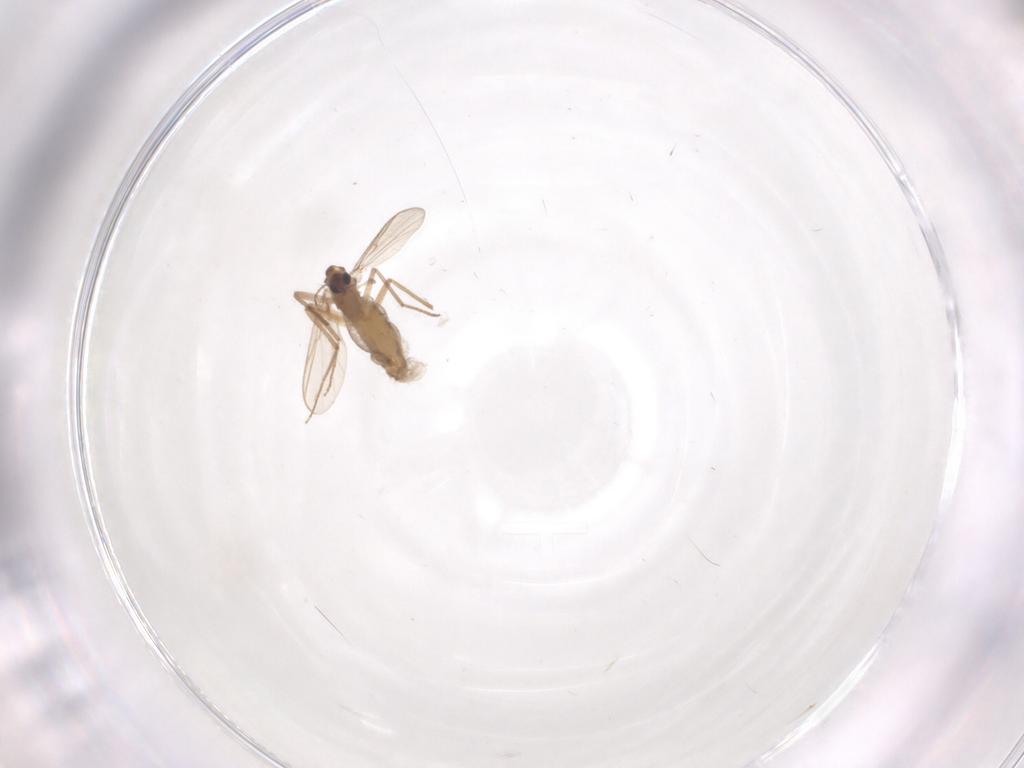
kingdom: Animalia
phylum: Arthropoda
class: Insecta
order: Diptera
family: Chironomidae
